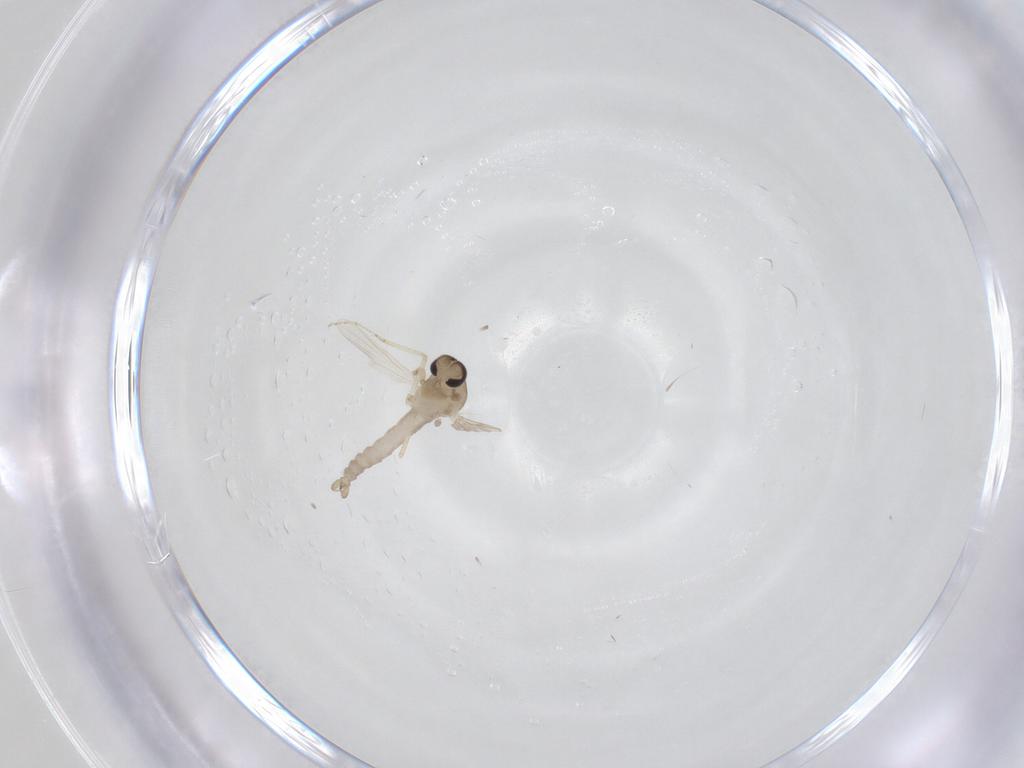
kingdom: Animalia
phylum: Arthropoda
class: Insecta
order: Diptera
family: Ceratopogonidae
